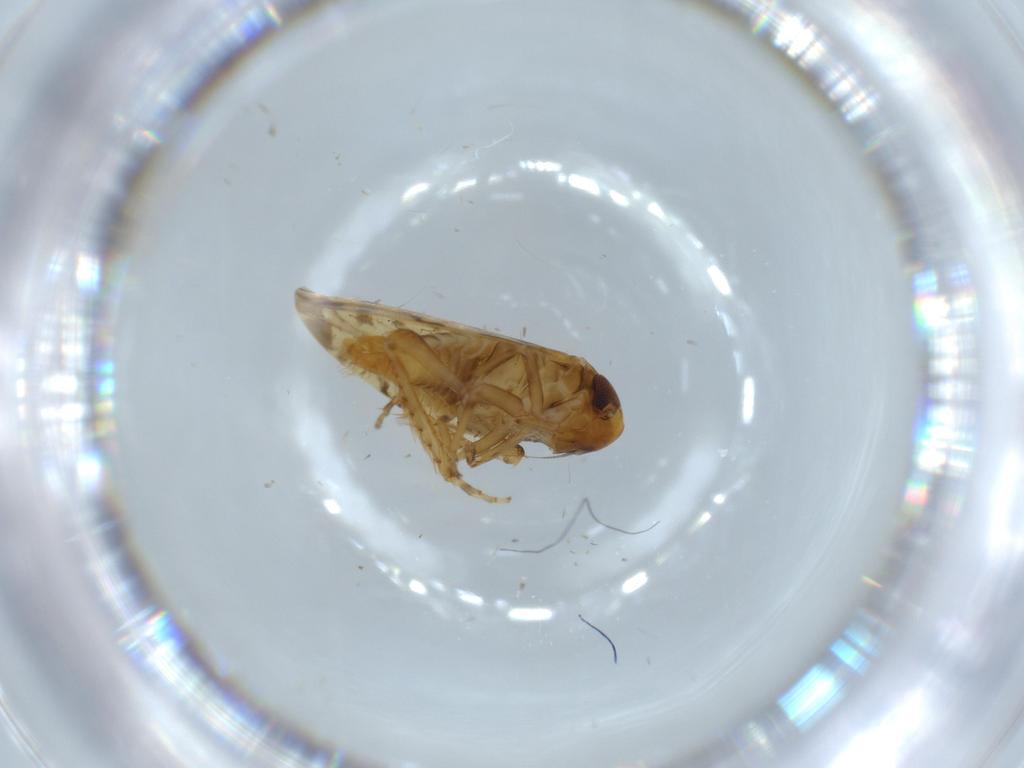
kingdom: Animalia
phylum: Arthropoda
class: Insecta
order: Hemiptera
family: Cicadellidae
